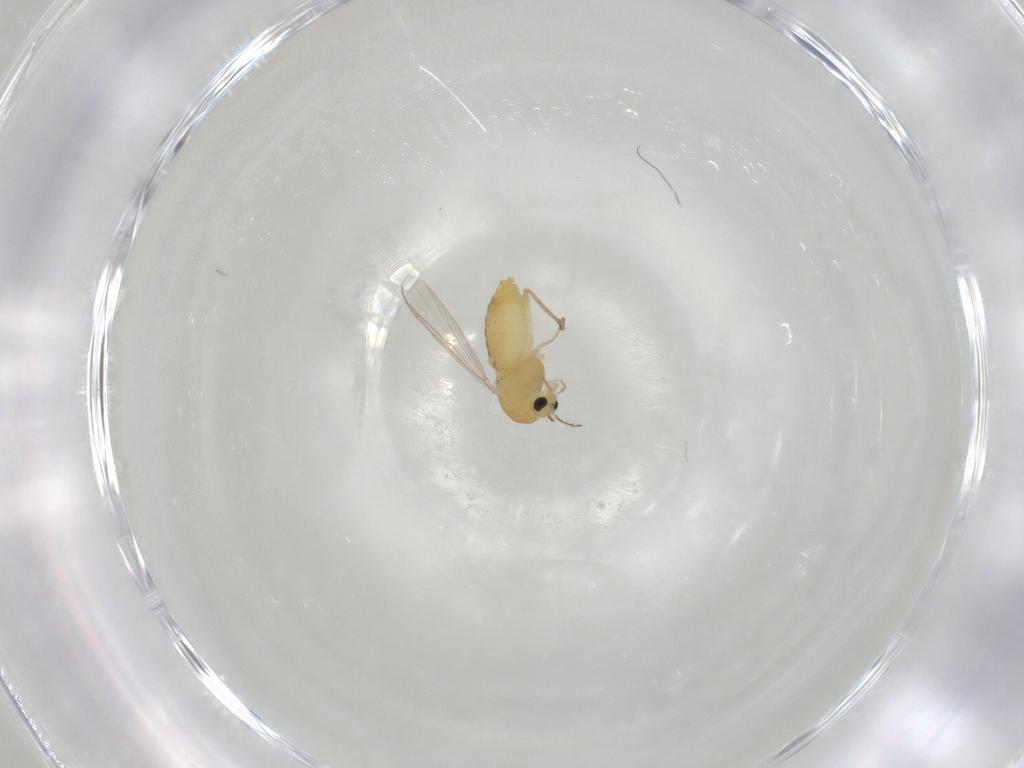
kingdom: Animalia
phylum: Arthropoda
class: Insecta
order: Diptera
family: Chironomidae
